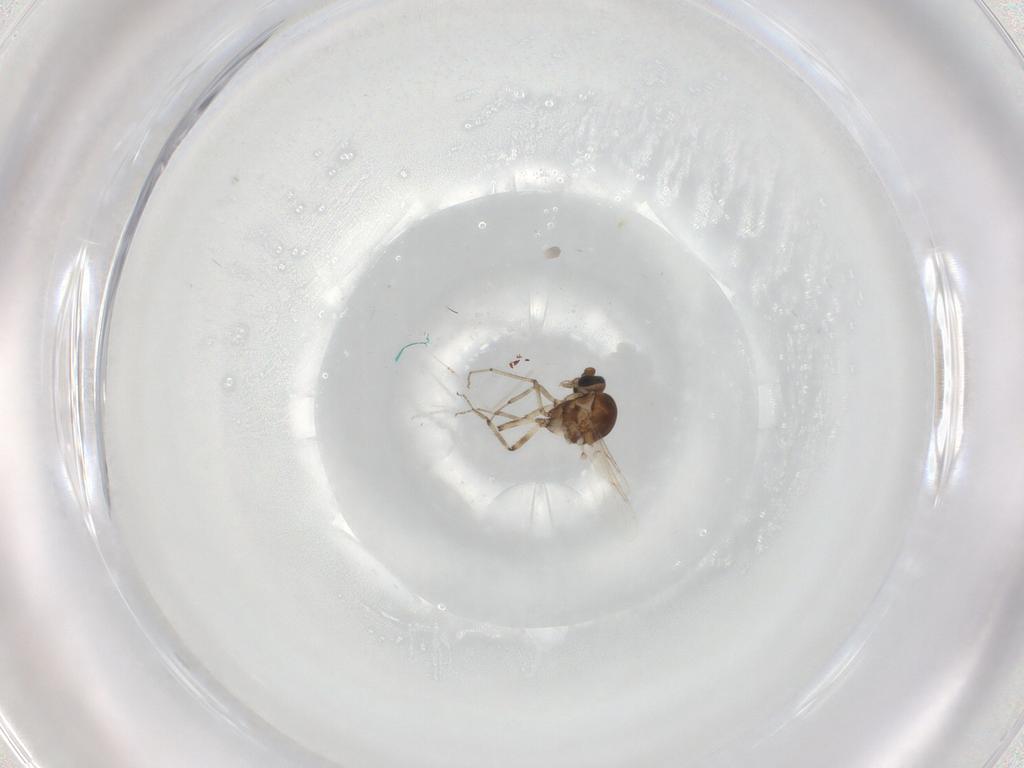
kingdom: Animalia
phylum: Arthropoda
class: Insecta
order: Diptera
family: Ceratopogonidae
